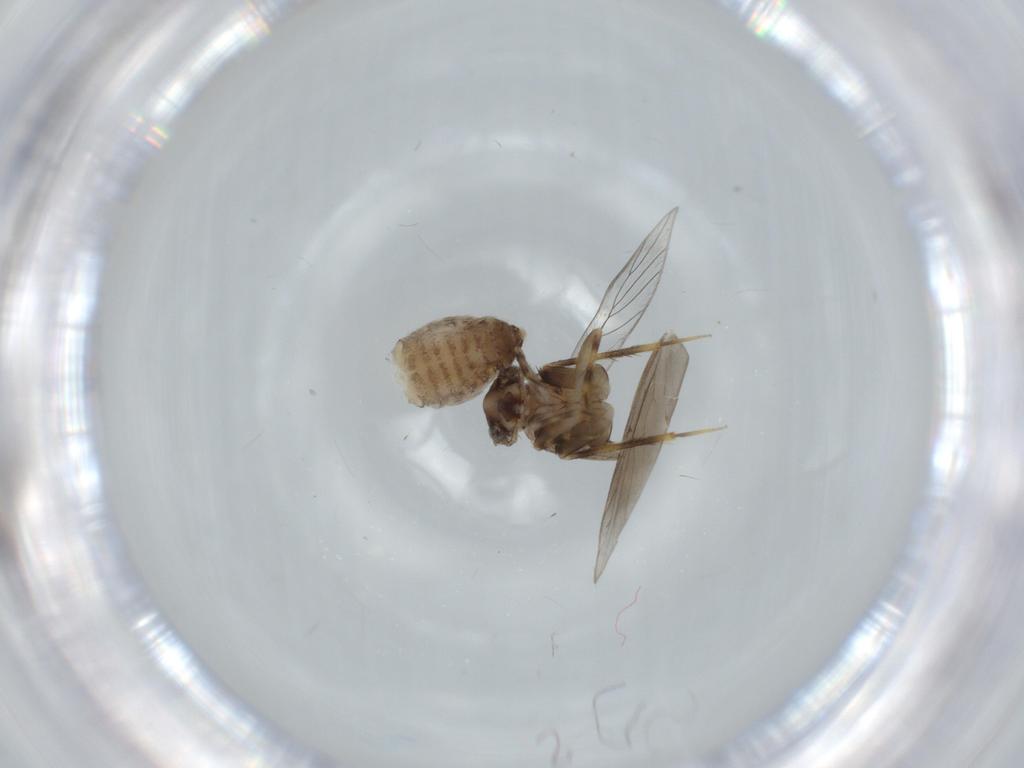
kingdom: Animalia
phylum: Arthropoda
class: Insecta
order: Psocodea
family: Lepidopsocidae
